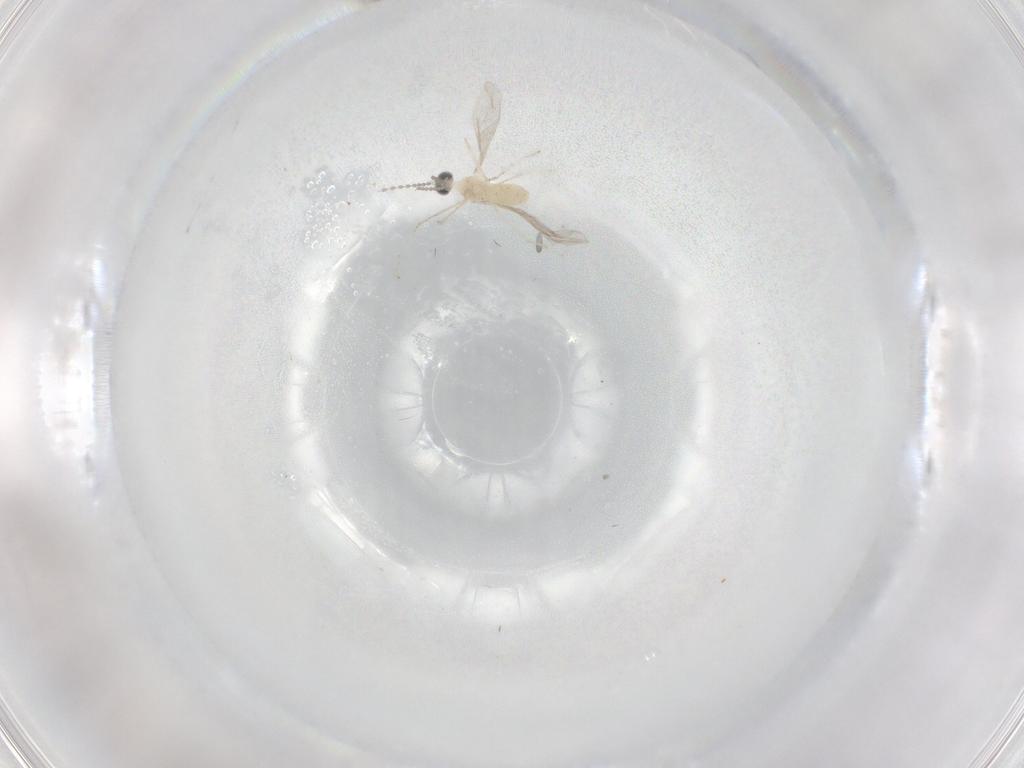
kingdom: Animalia
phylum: Arthropoda
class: Insecta
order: Diptera
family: Cecidomyiidae
